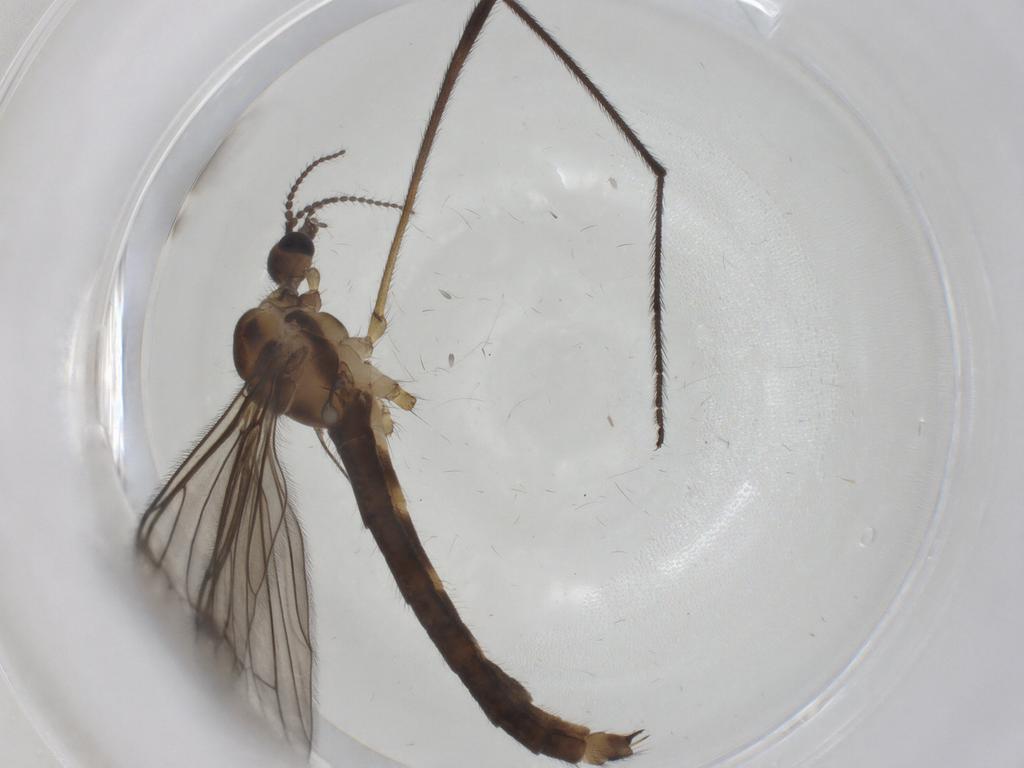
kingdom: Animalia
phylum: Arthropoda
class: Insecta
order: Diptera
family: Limoniidae
